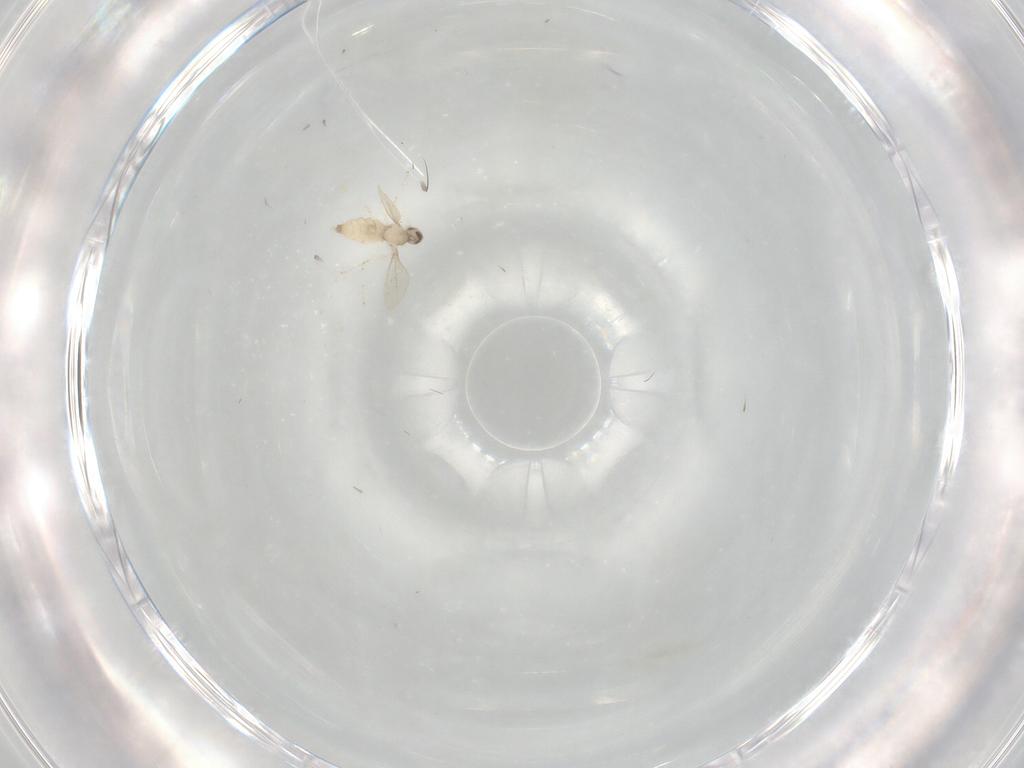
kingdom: Animalia
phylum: Arthropoda
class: Insecta
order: Diptera
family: Cecidomyiidae
